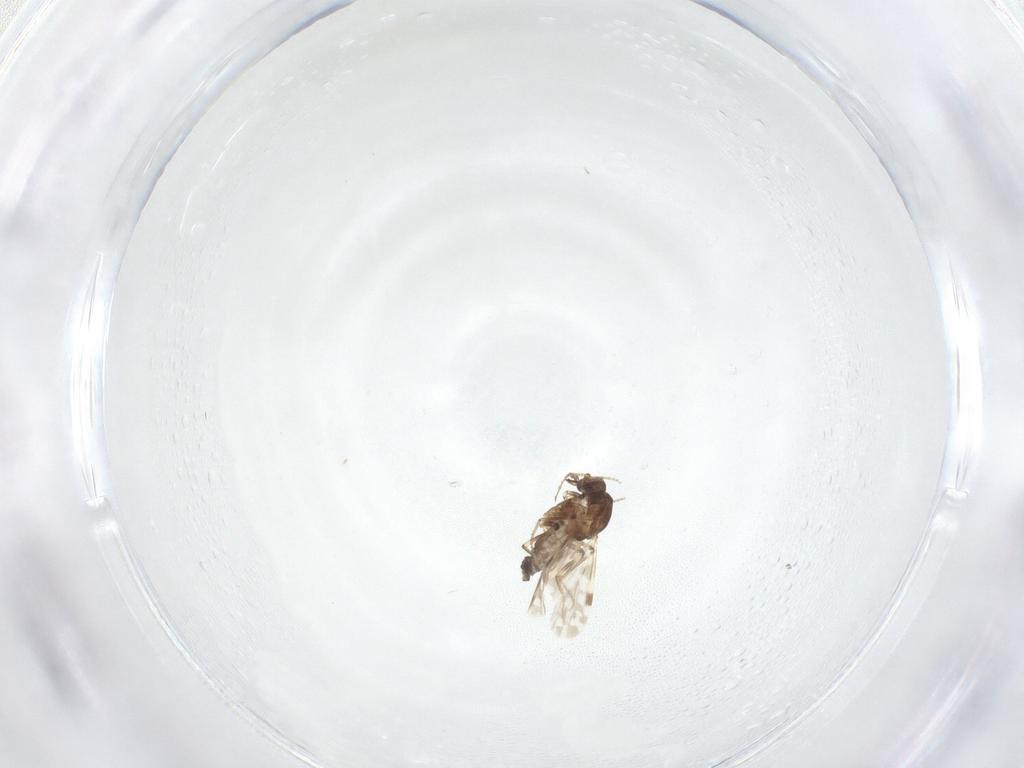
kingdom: Animalia
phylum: Arthropoda
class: Insecta
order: Diptera
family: Ceratopogonidae
